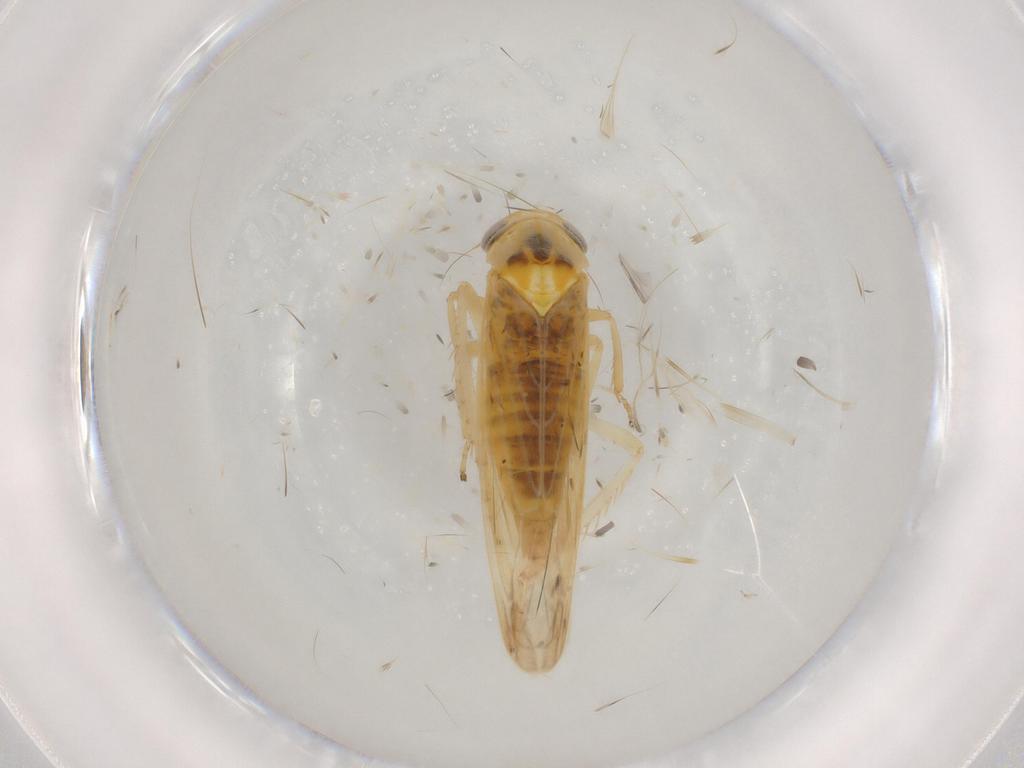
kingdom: Animalia
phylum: Arthropoda
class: Insecta
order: Hemiptera
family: Cicadellidae
